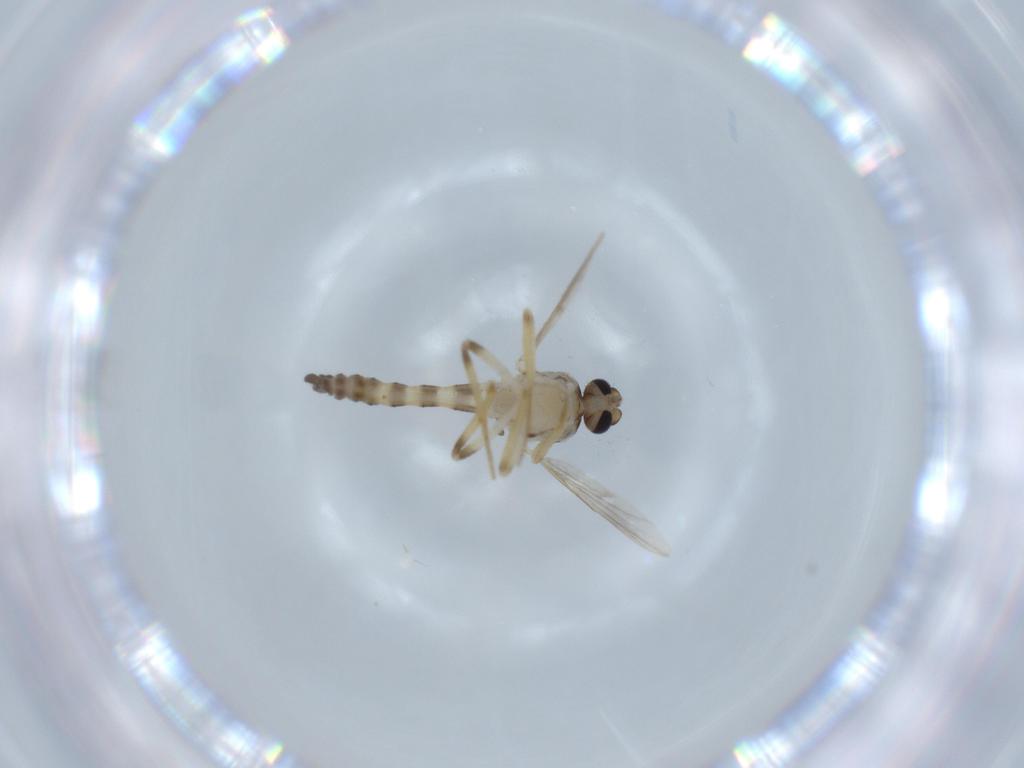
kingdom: Animalia
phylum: Arthropoda
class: Insecta
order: Diptera
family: Ceratopogonidae
